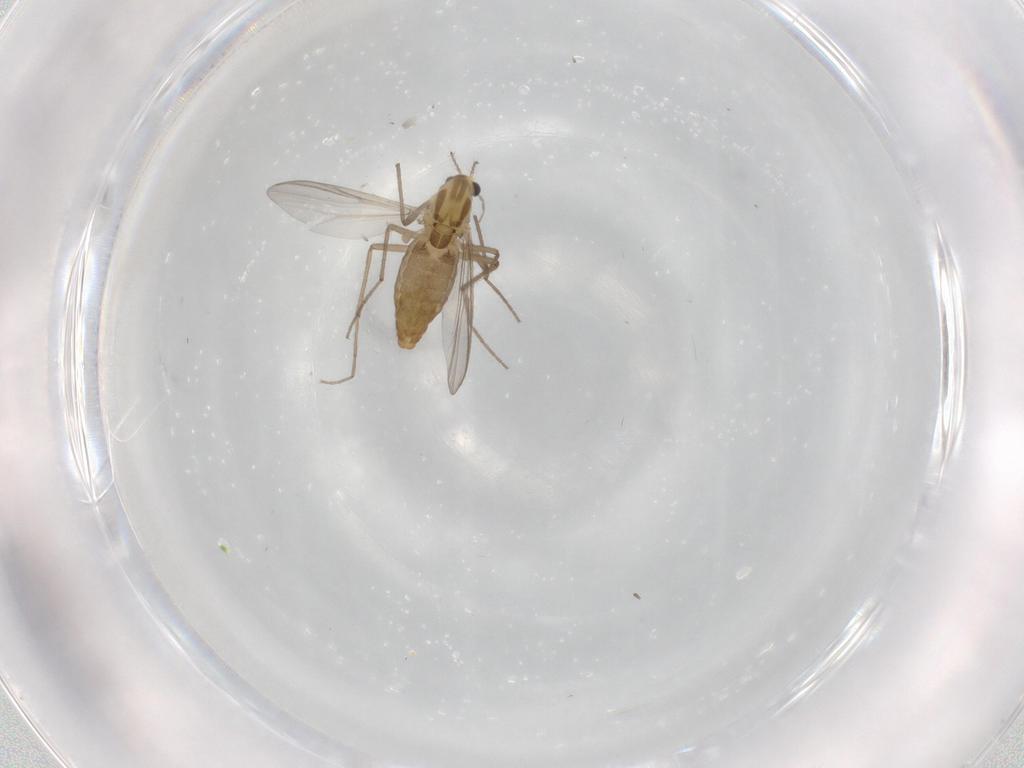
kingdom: Animalia
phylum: Arthropoda
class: Insecta
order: Diptera
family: Chironomidae
